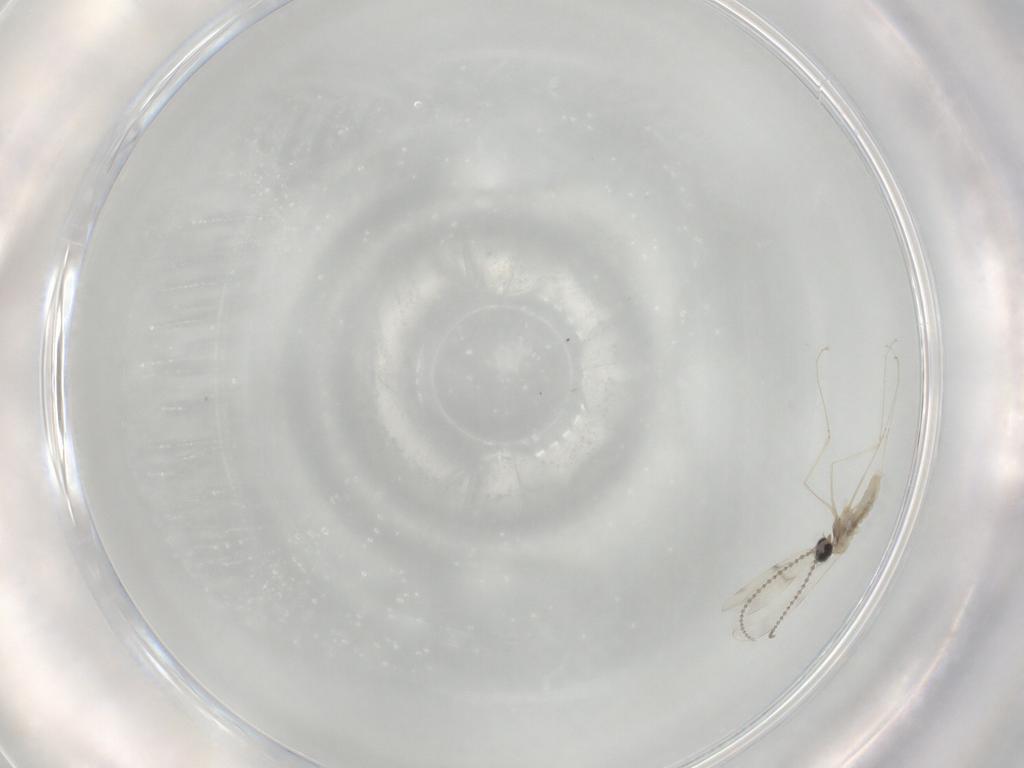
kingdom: Animalia
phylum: Arthropoda
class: Insecta
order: Diptera
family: Cecidomyiidae
